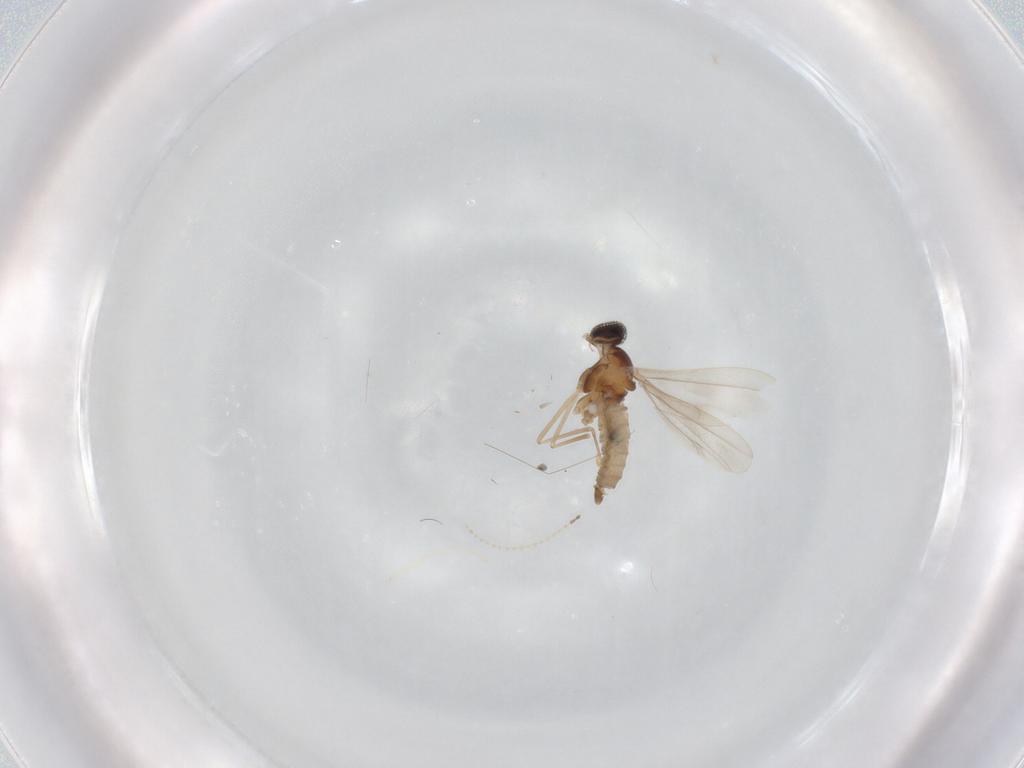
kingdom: Animalia
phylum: Arthropoda
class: Insecta
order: Diptera
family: Cecidomyiidae
